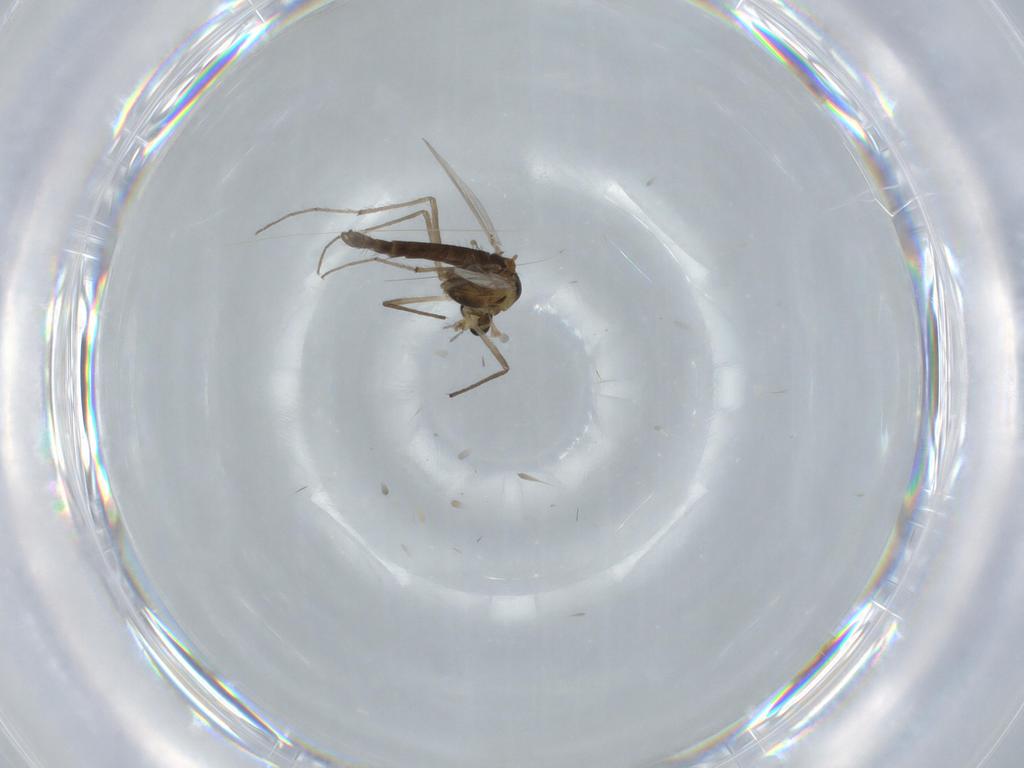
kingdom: Animalia
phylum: Arthropoda
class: Insecta
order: Diptera
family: Chironomidae
